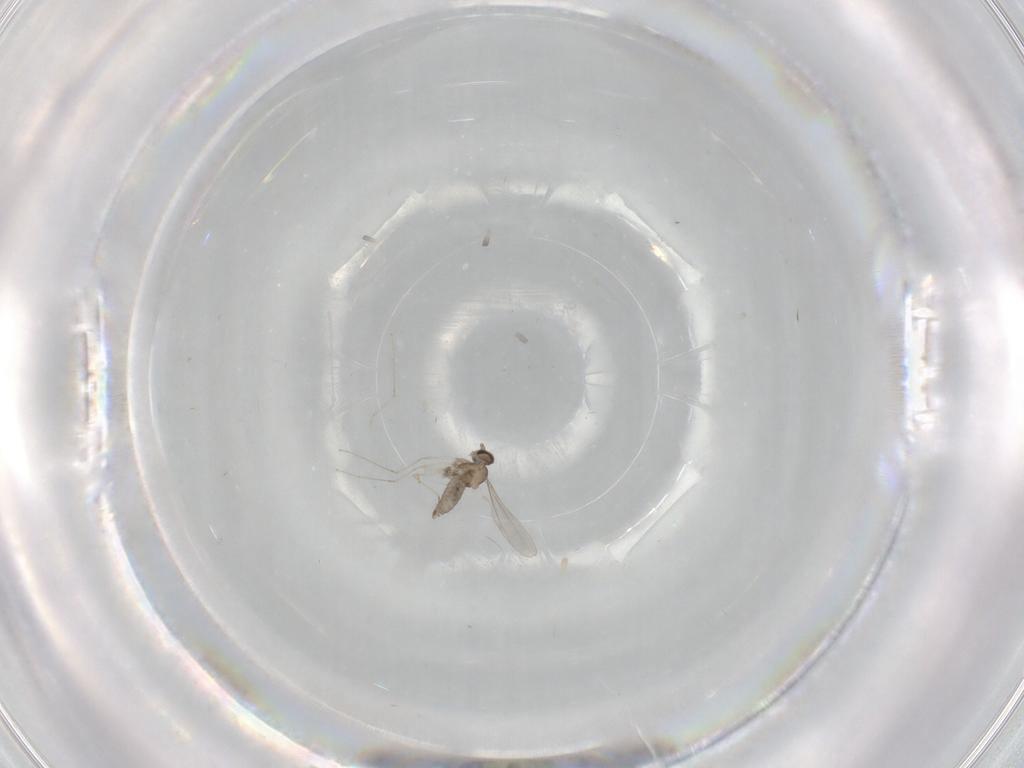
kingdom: Animalia
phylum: Arthropoda
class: Insecta
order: Diptera
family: Cecidomyiidae
